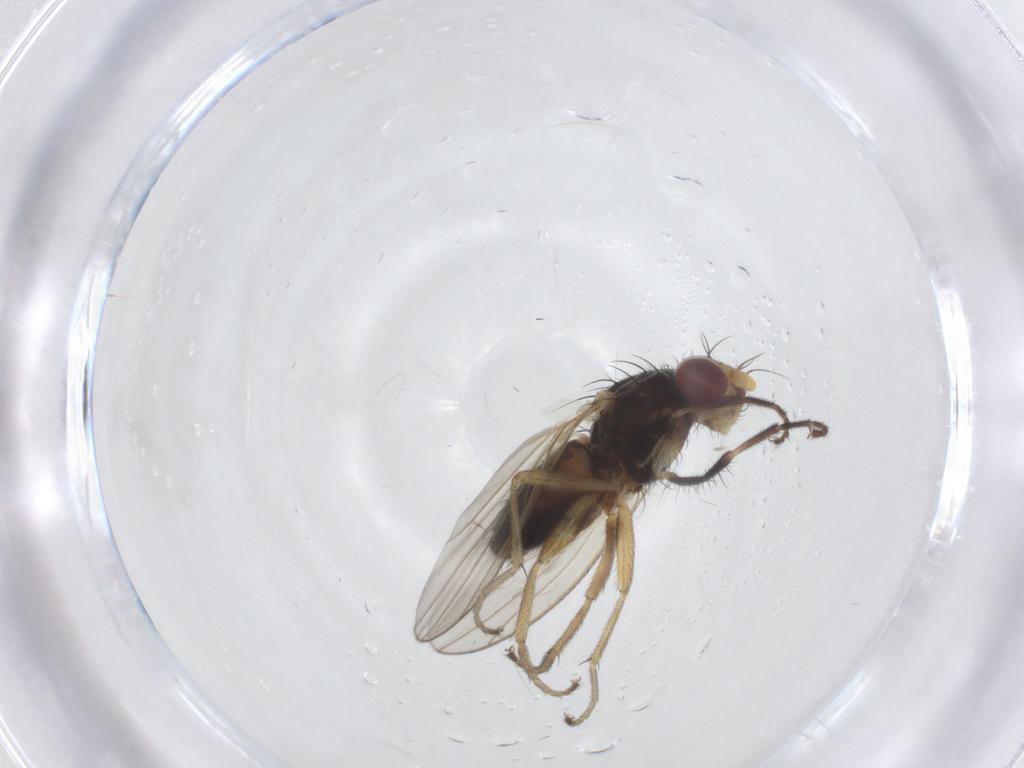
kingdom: Animalia
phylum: Arthropoda
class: Insecta
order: Diptera
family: Heleomyzidae
